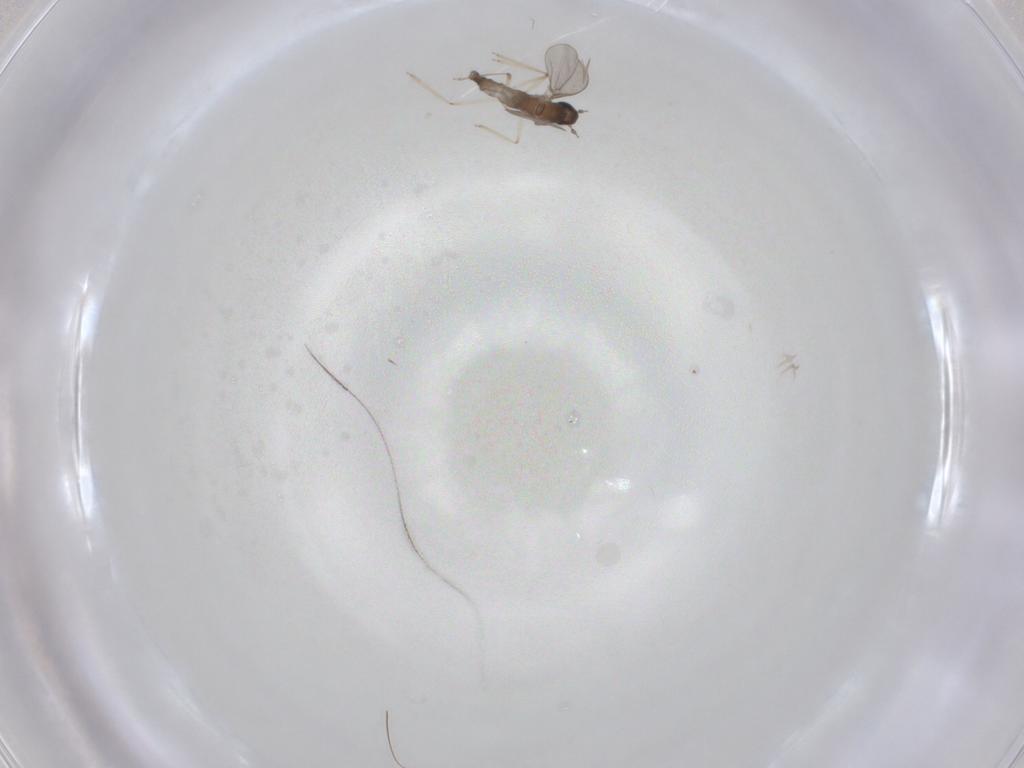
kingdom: Animalia
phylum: Arthropoda
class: Insecta
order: Diptera
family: Cecidomyiidae
